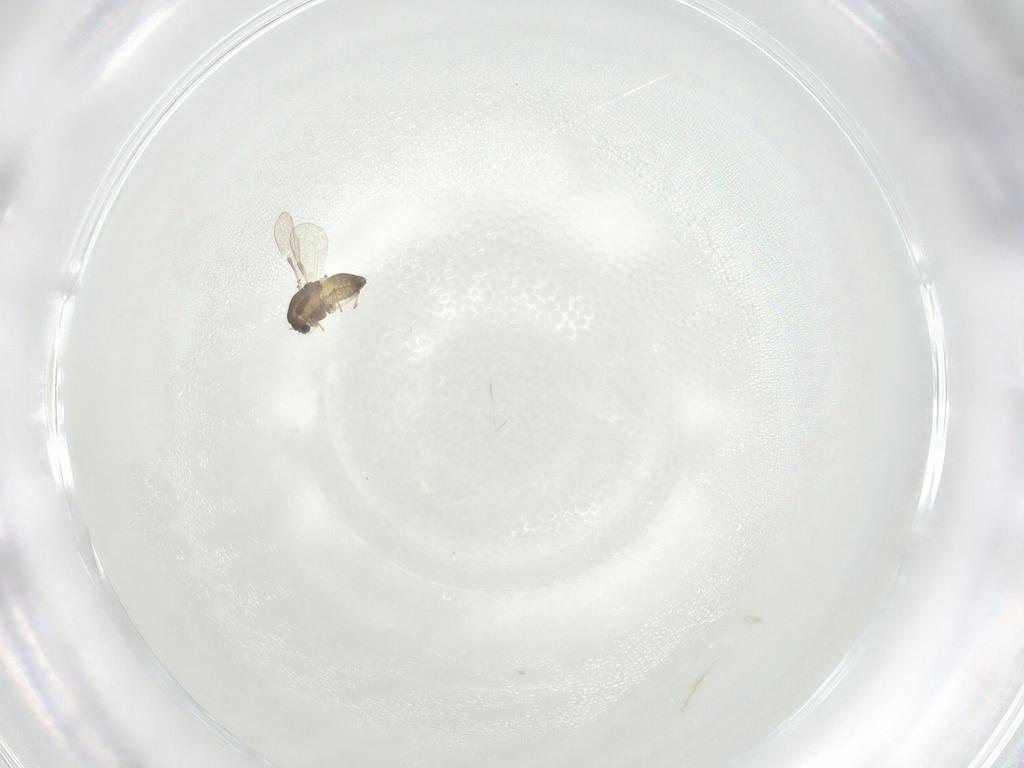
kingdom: Animalia
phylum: Arthropoda
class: Insecta
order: Diptera
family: Chironomidae
